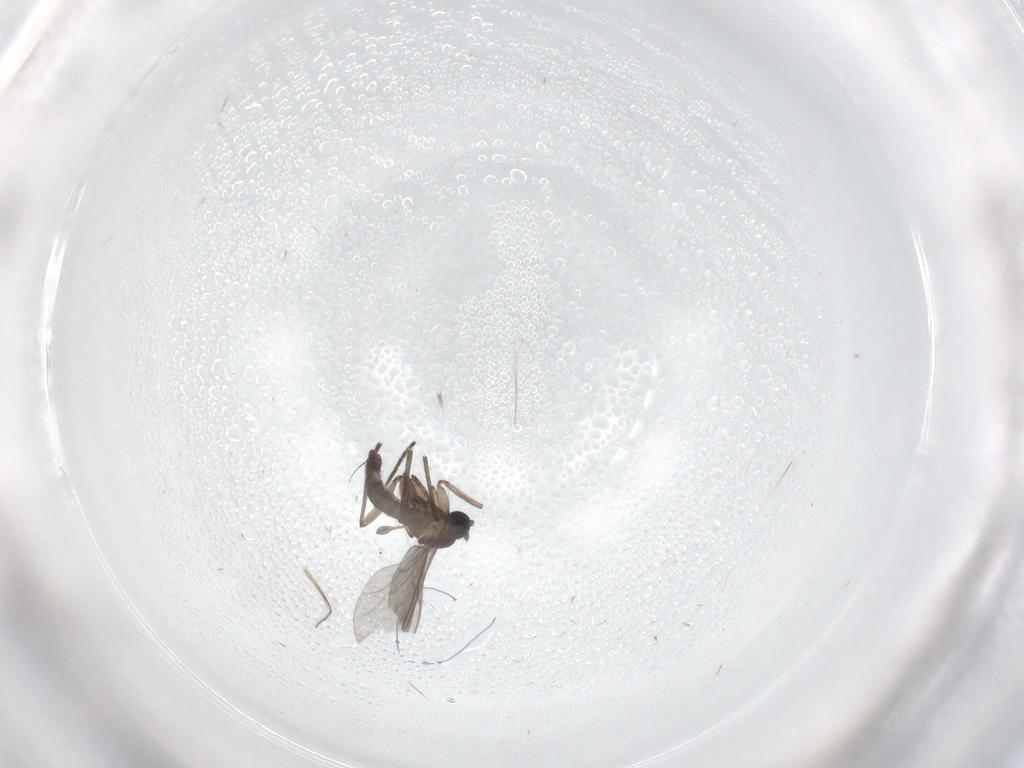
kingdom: Animalia
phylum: Arthropoda
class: Insecta
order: Diptera
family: Ceratopogonidae
